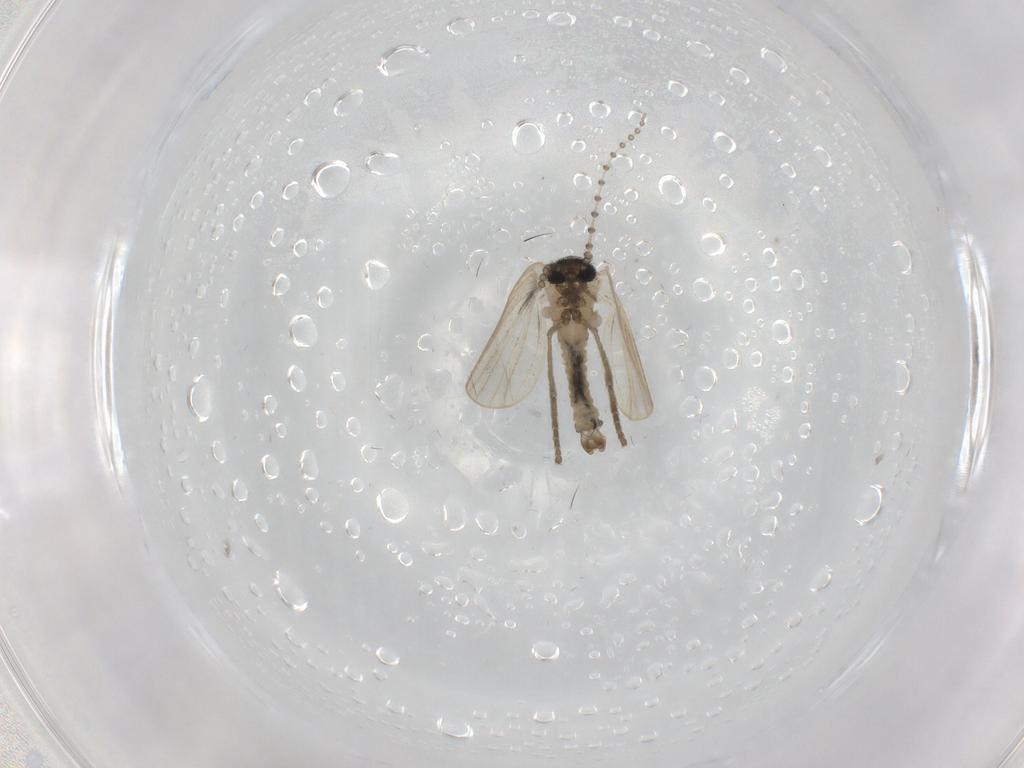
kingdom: Animalia
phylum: Arthropoda
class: Insecta
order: Diptera
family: Psychodidae
